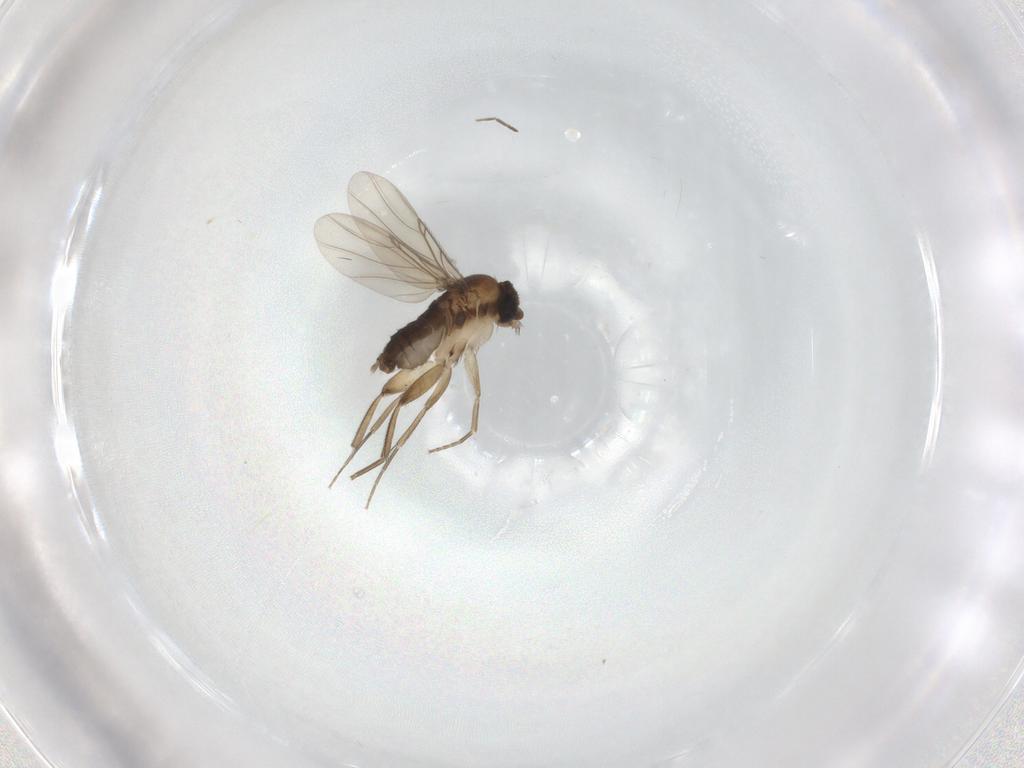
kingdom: Animalia
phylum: Arthropoda
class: Insecta
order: Diptera
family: Phoridae
